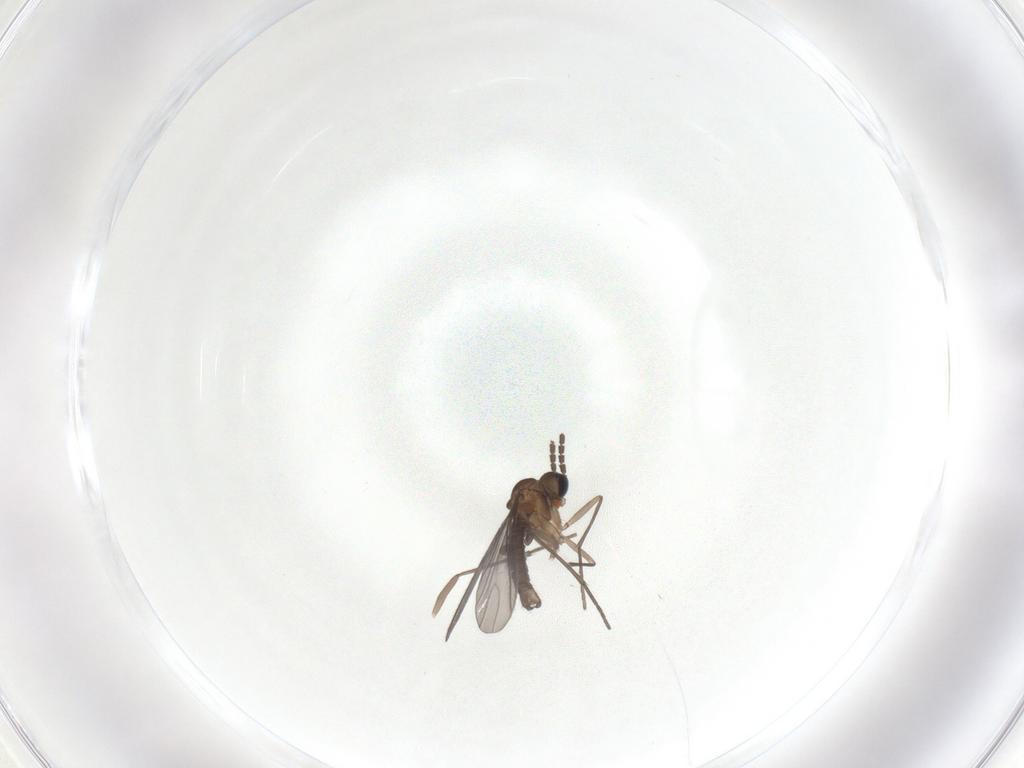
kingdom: Animalia
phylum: Arthropoda
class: Insecta
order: Diptera
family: Sciaridae
